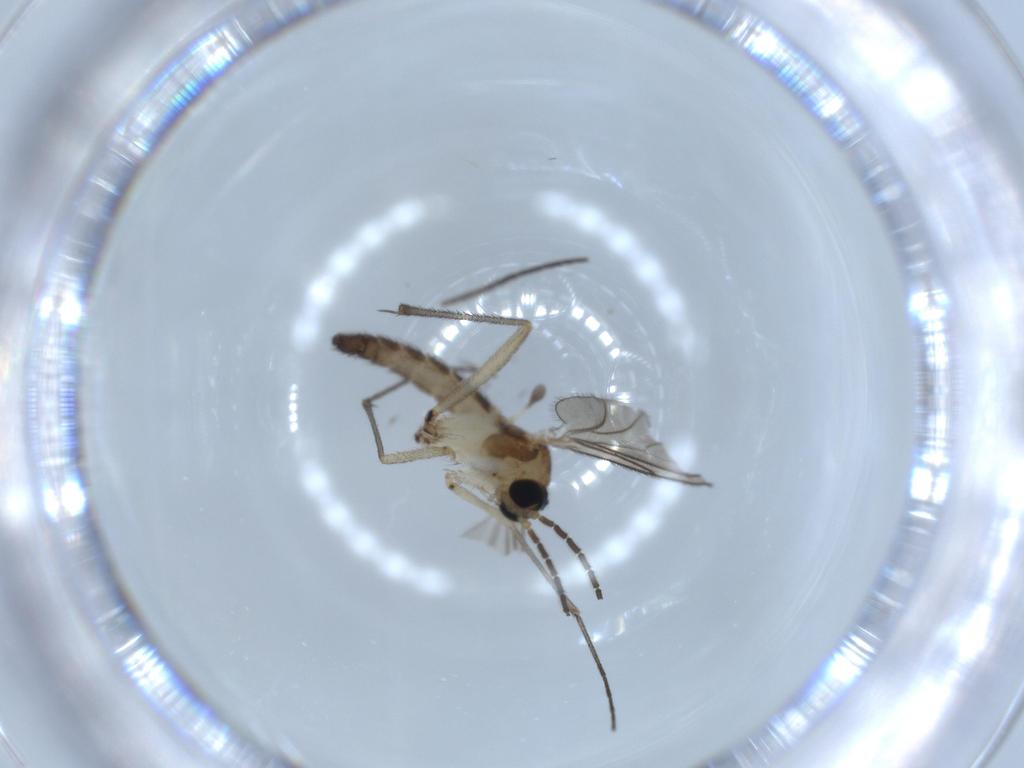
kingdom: Animalia
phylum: Arthropoda
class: Insecta
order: Diptera
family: Sciaridae
